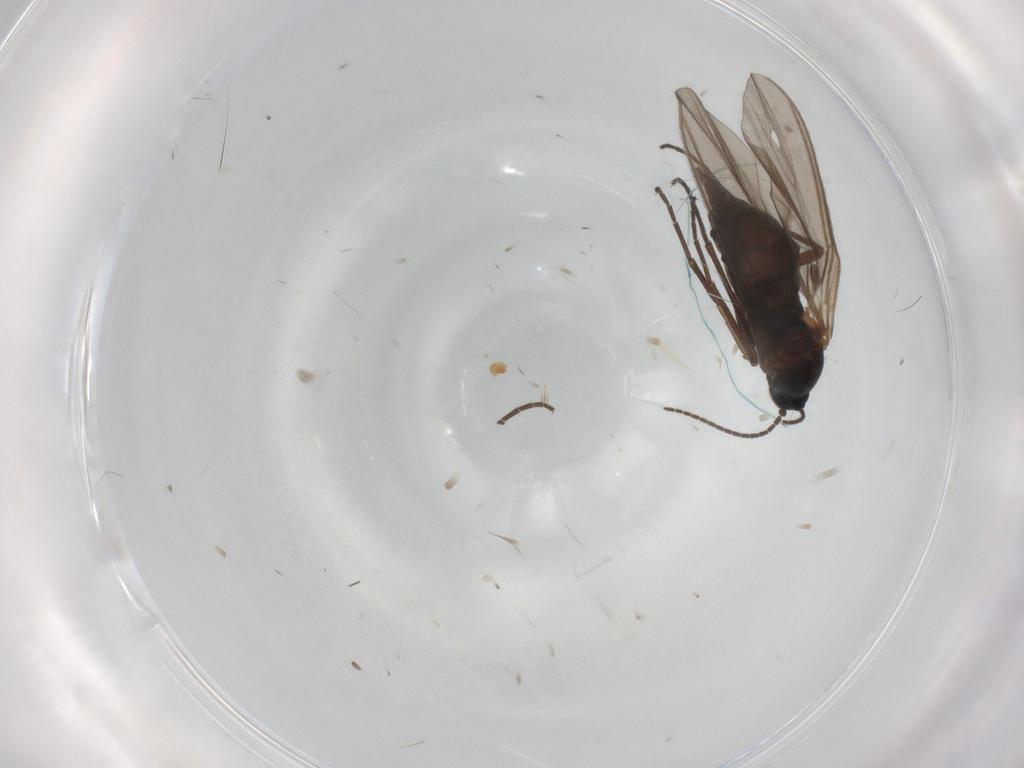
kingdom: Animalia
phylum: Arthropoda
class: Insecta
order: Diptera
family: Sciaridae
